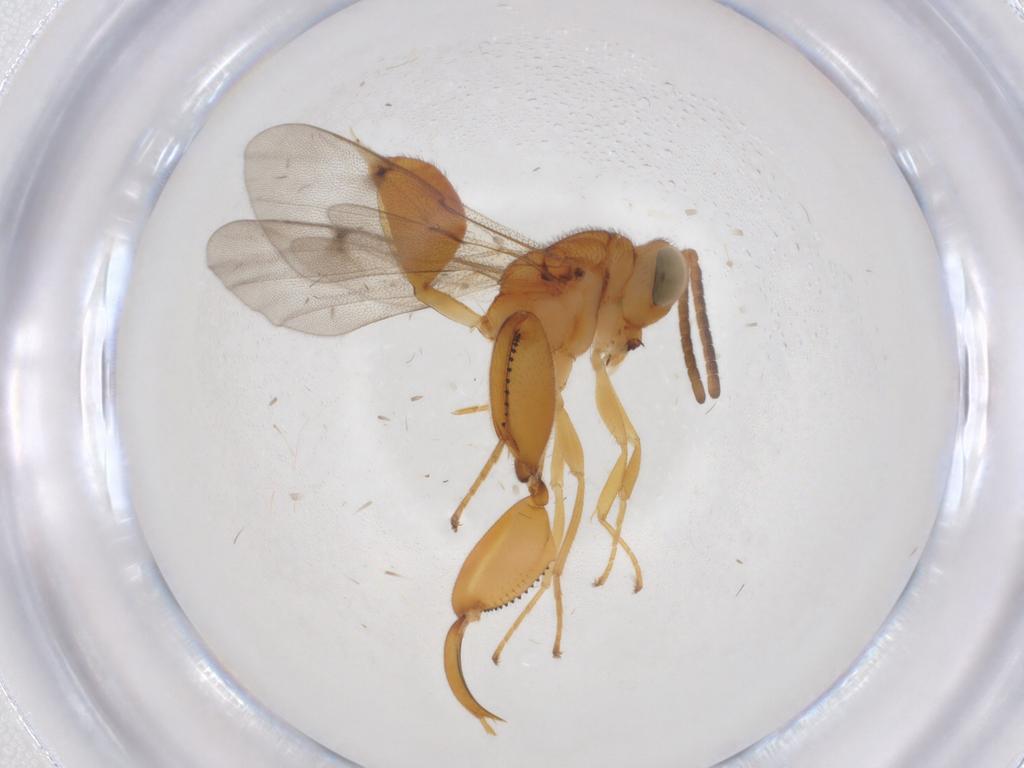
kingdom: Animalia
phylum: Arthropoda
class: Insecta
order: Hymenoptera
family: Chalcididae
